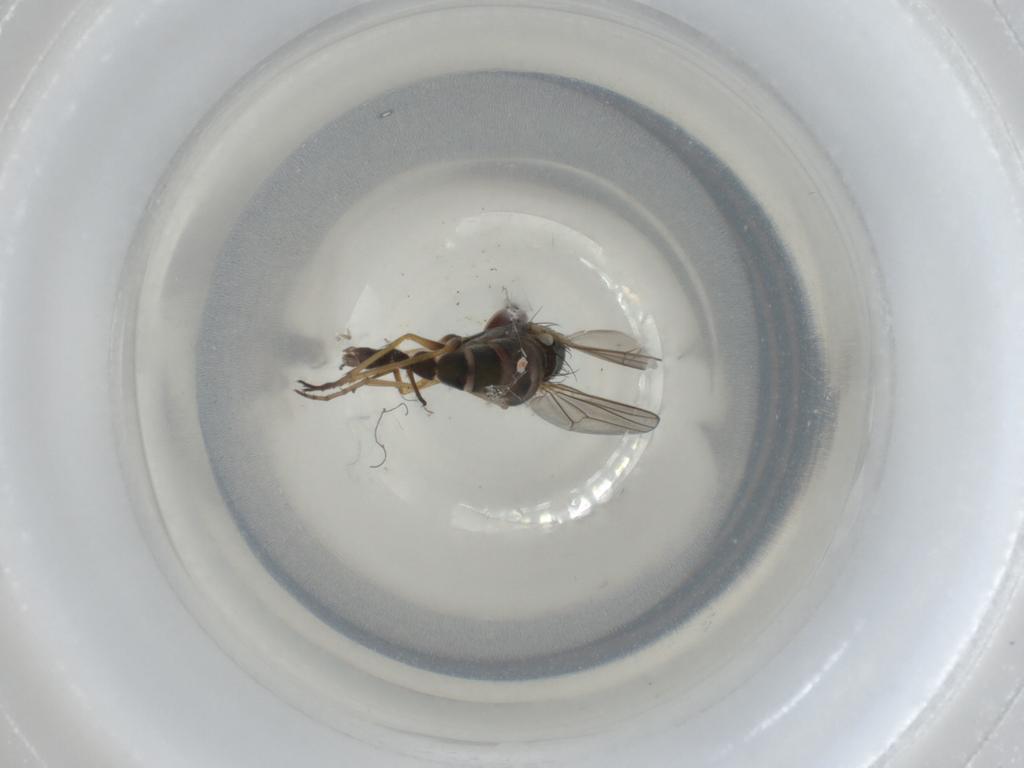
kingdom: Animalia
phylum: Arthropoda
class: Insecta
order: Diptera
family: Dolichopodidae
